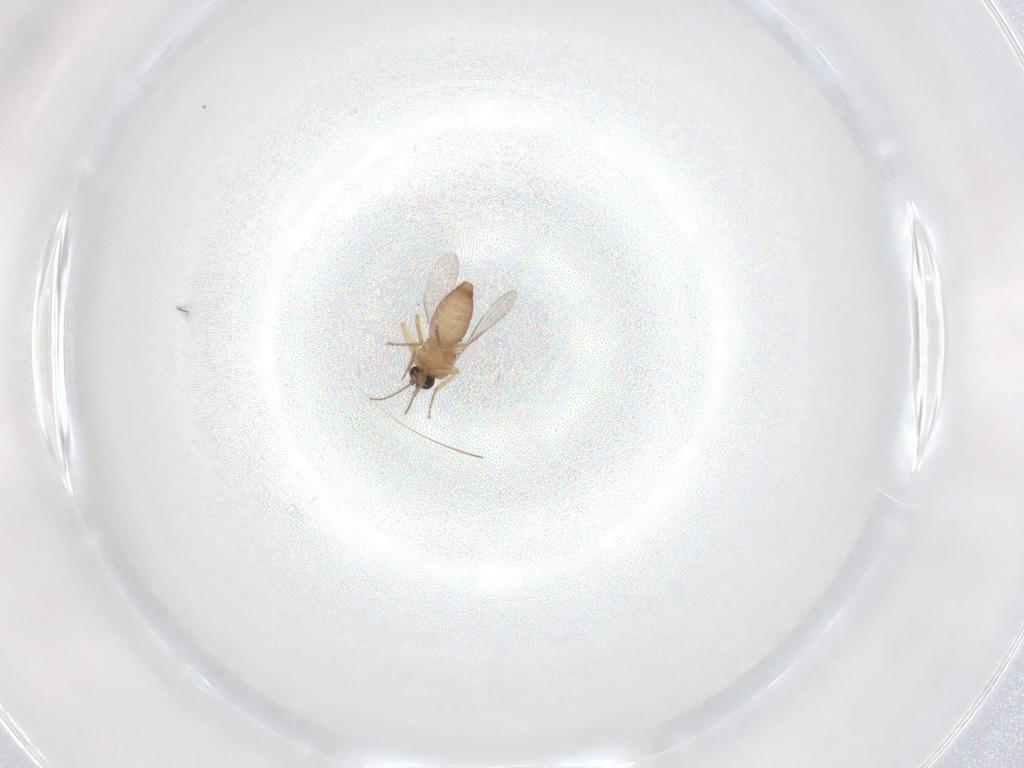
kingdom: Animalia
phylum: Arthropoda
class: Insecta
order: Diptera
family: Ceratopogonidae
